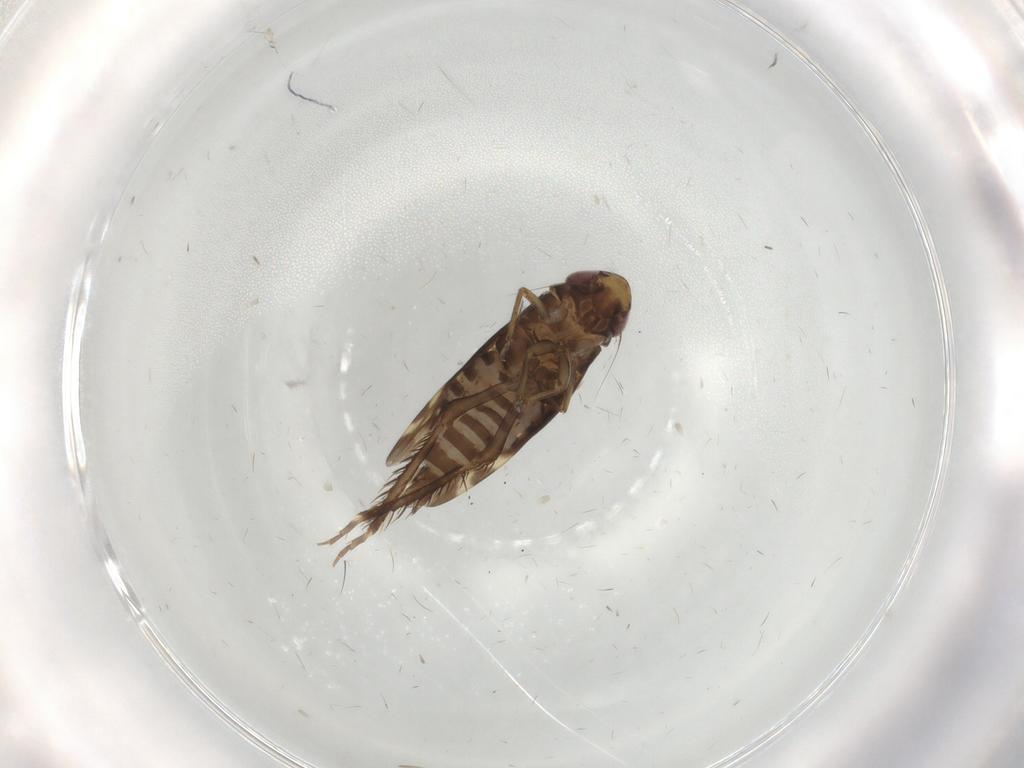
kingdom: Animalia
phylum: Arthropoda
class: Insecta
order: Hemiptera
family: Cicadellidae
